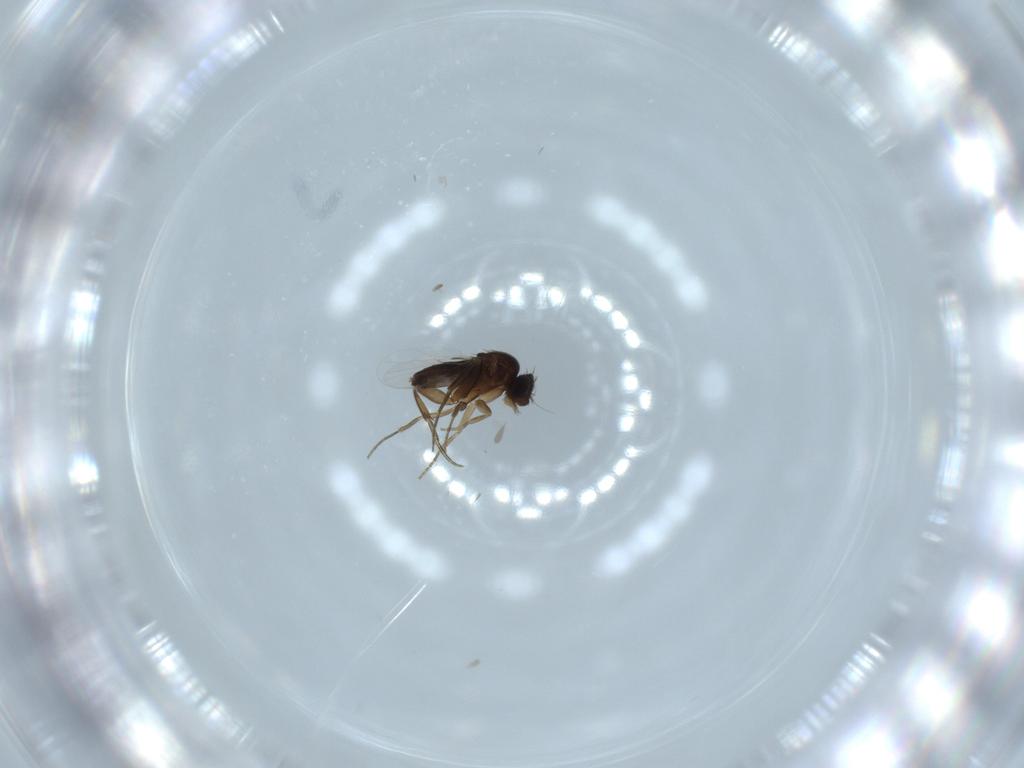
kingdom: Animalia
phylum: Arthropoda
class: Insecta
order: Diptera
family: Phoridae
